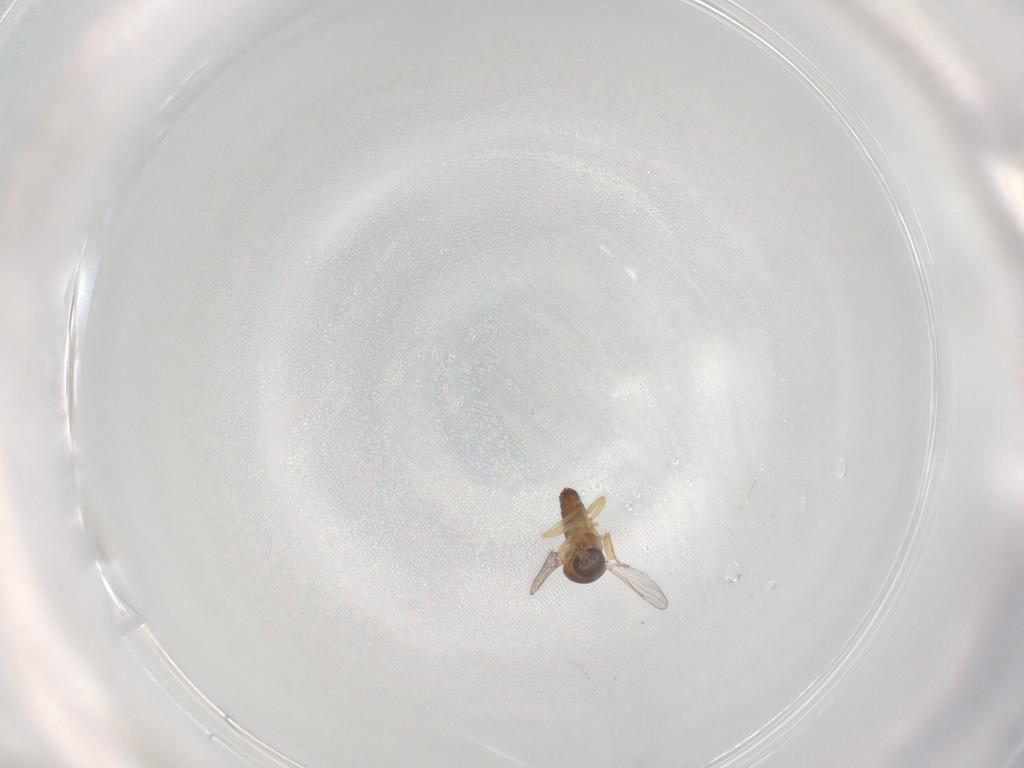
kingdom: Animalia
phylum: Arthropoda
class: Insecta
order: Diptera
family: Ceratopogonidae
